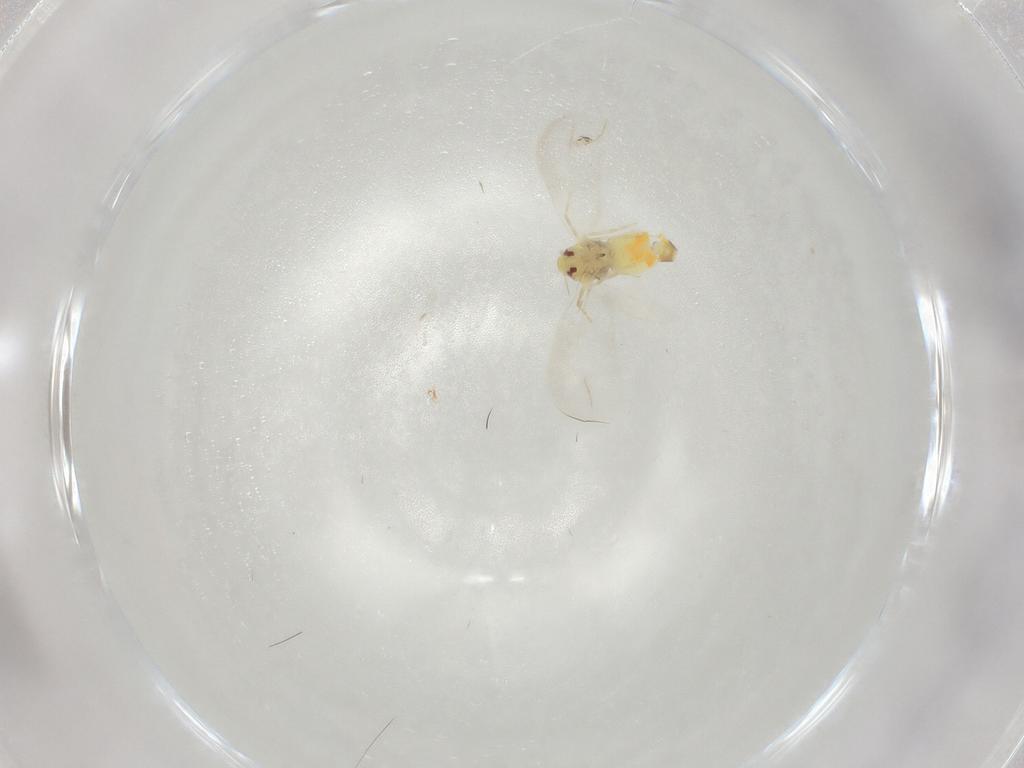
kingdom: Animalia
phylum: Arthropoda
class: Insecta
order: Hemiptera
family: Aleyrodidae
